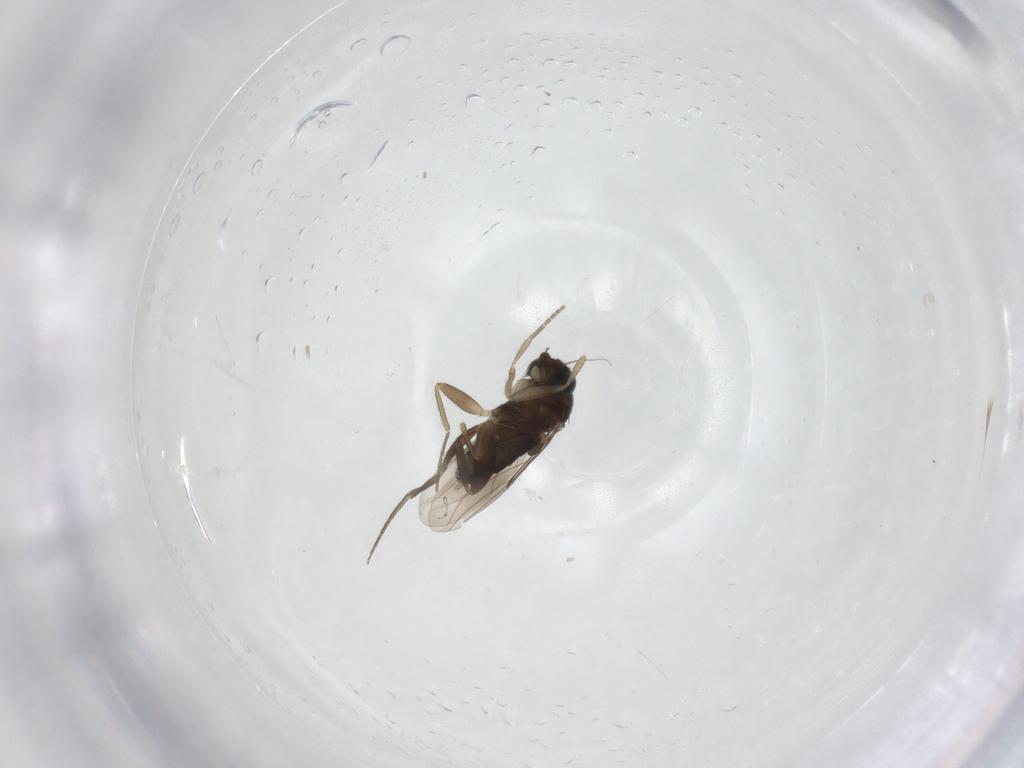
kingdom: Animalia
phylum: Arthropoda
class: Insecta
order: Diptera
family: Phoridae
